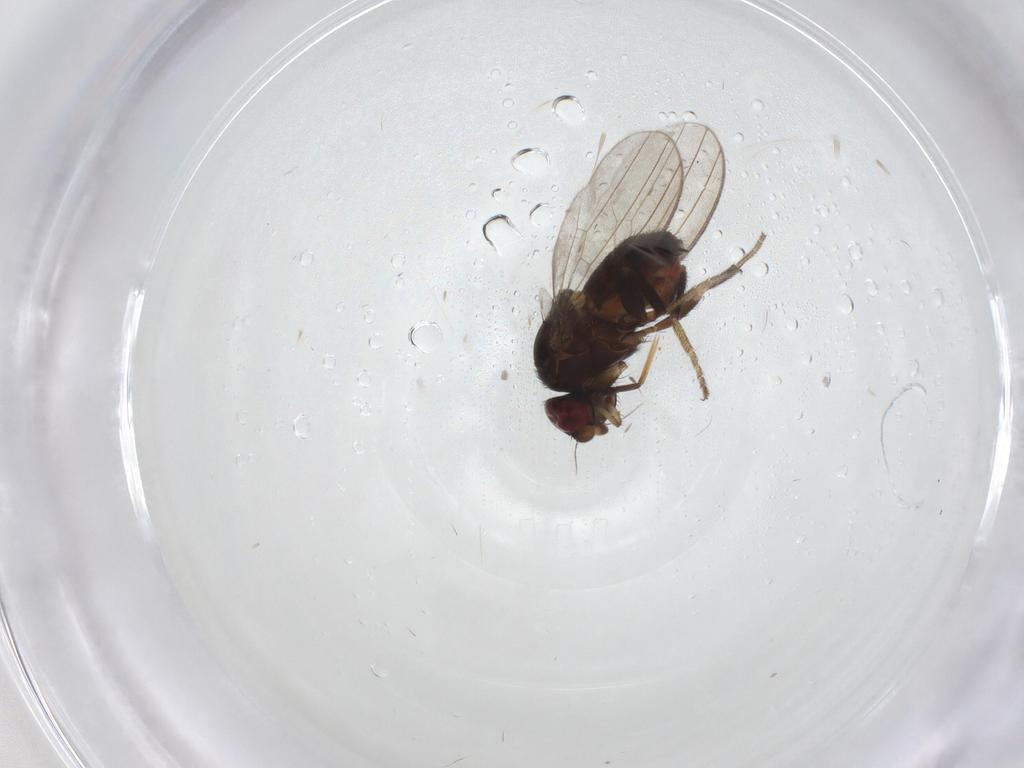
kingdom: Animalia
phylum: Arthropoda
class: Insecta
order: Diptera
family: Milichiidae
